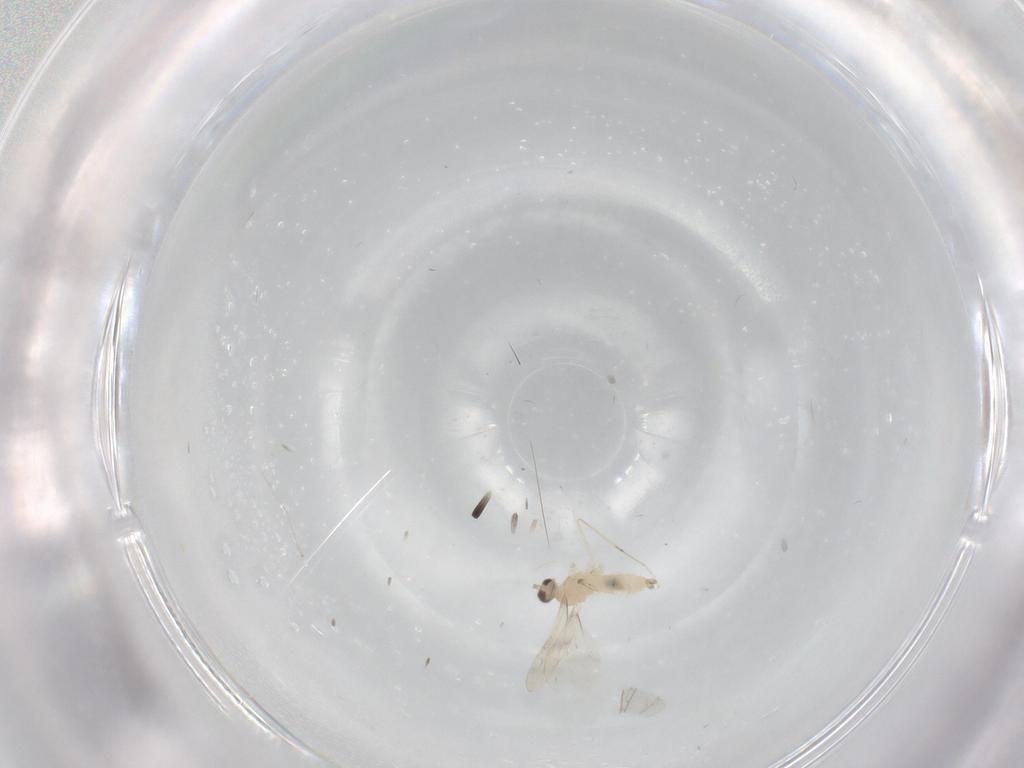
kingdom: Animalia
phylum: Arthropoda
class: Insecta
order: Diptera
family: Cecidomyiidae
